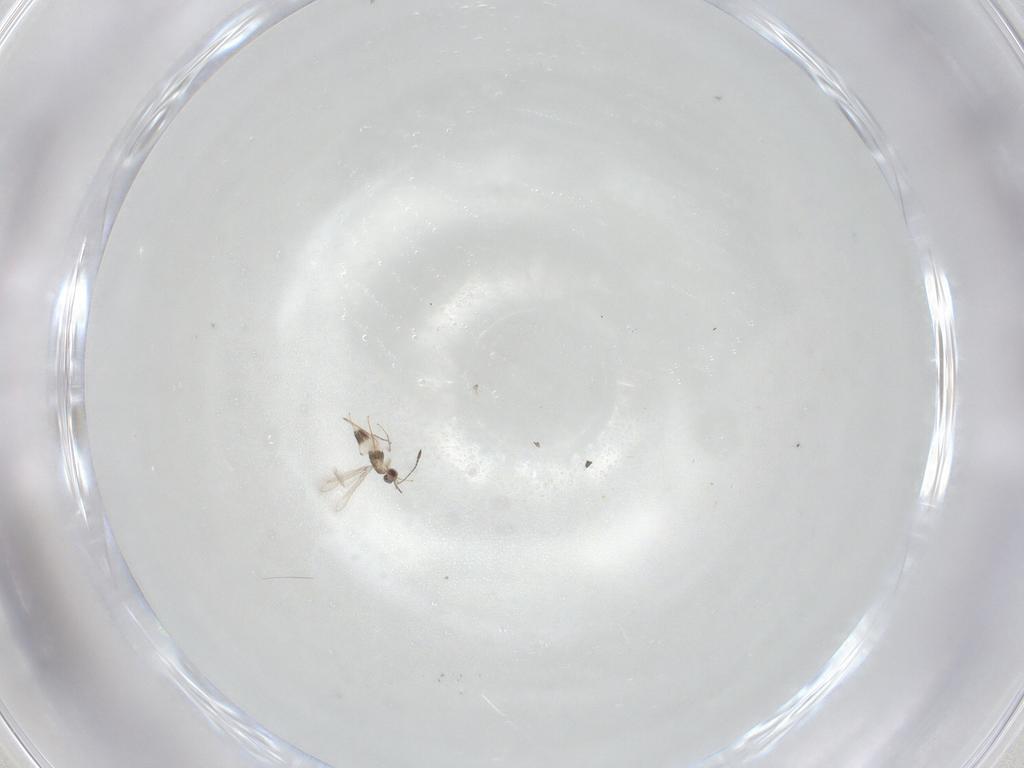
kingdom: Animalia
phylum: Arthropoda
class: Insecta
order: Hymenoptera
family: Mymaridae
